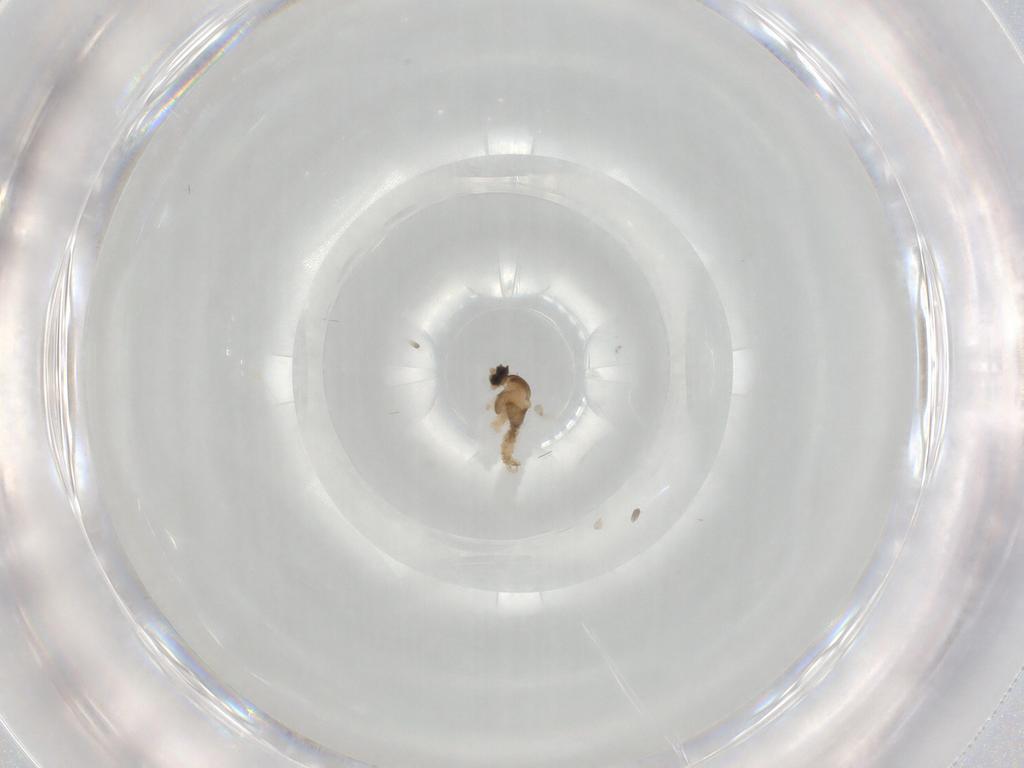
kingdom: Animalia
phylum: Arthropoda
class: Insecta
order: Diptera
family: Cecidomyiidae
